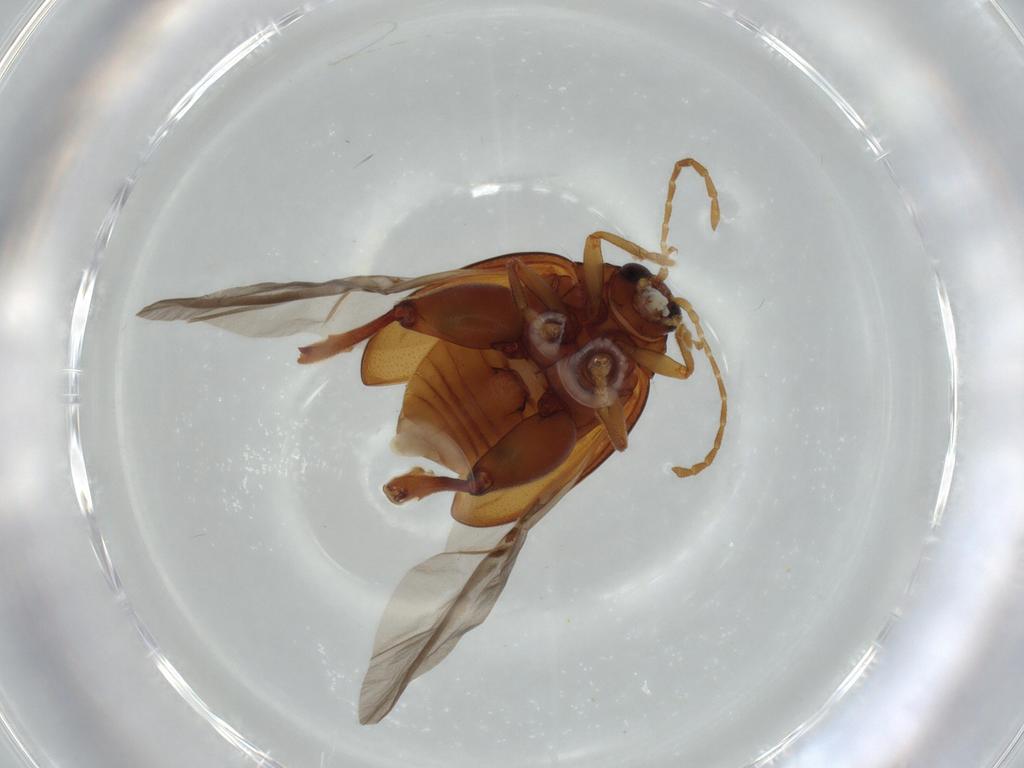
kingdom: Animalia
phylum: Arthropoda
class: Insecta
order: Coleoptera
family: Chrysomelidae
